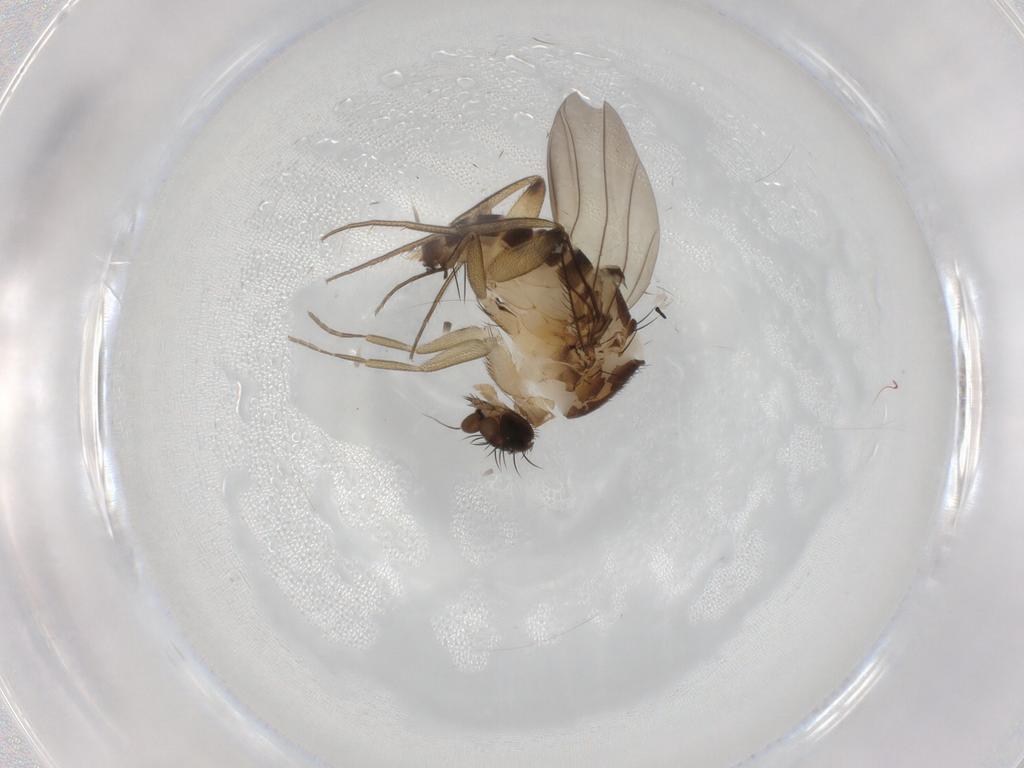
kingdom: Animalia
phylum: Arthropoda
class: Insecta
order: Diptera
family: Phoridae
